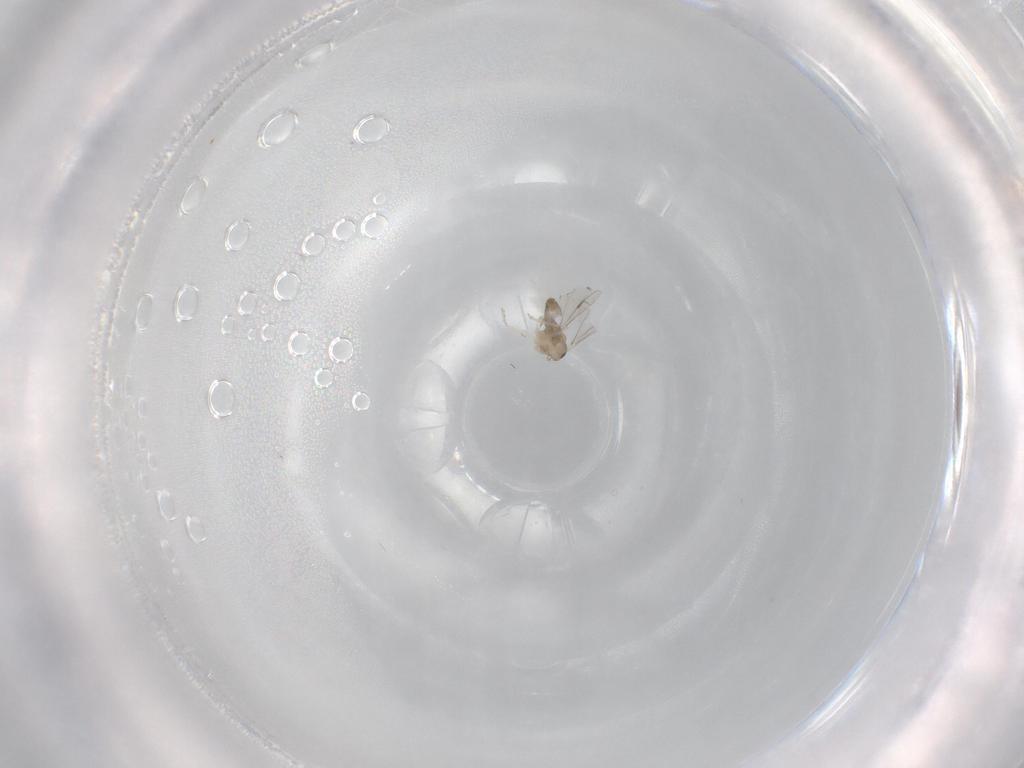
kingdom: Animalia
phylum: Arthropoda
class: Insecta
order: Diptera
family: Cecidomyiidae
